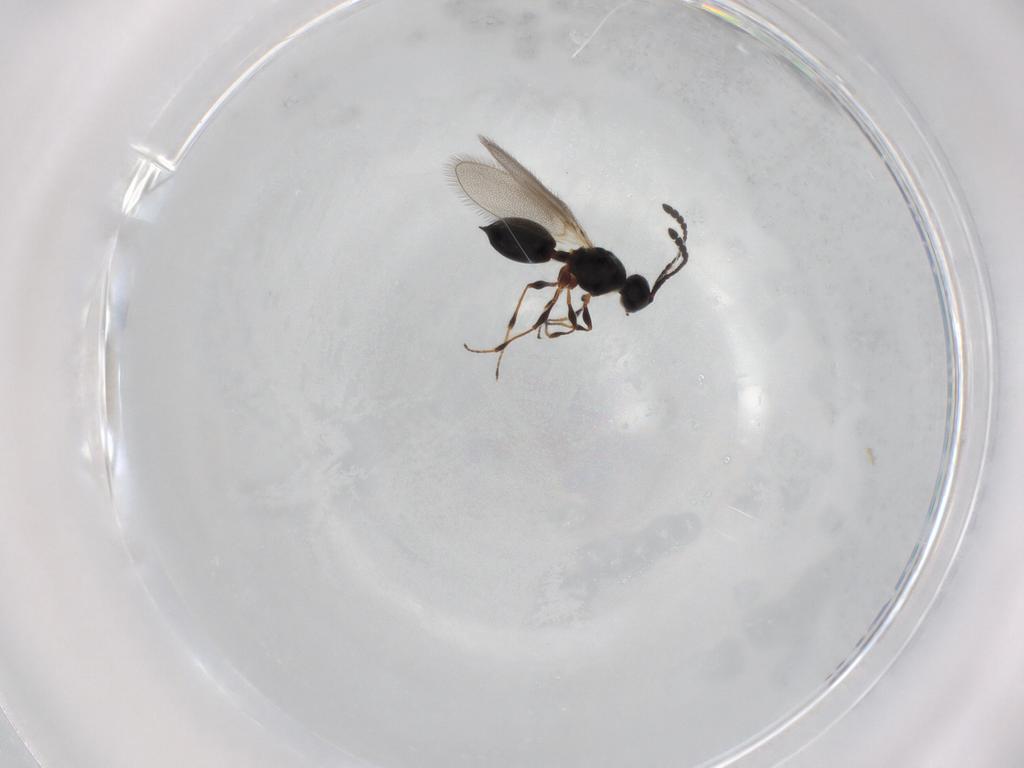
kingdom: Animalia
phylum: Arthropoda
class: Insecta
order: Hymenoptera
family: Diapriidae
